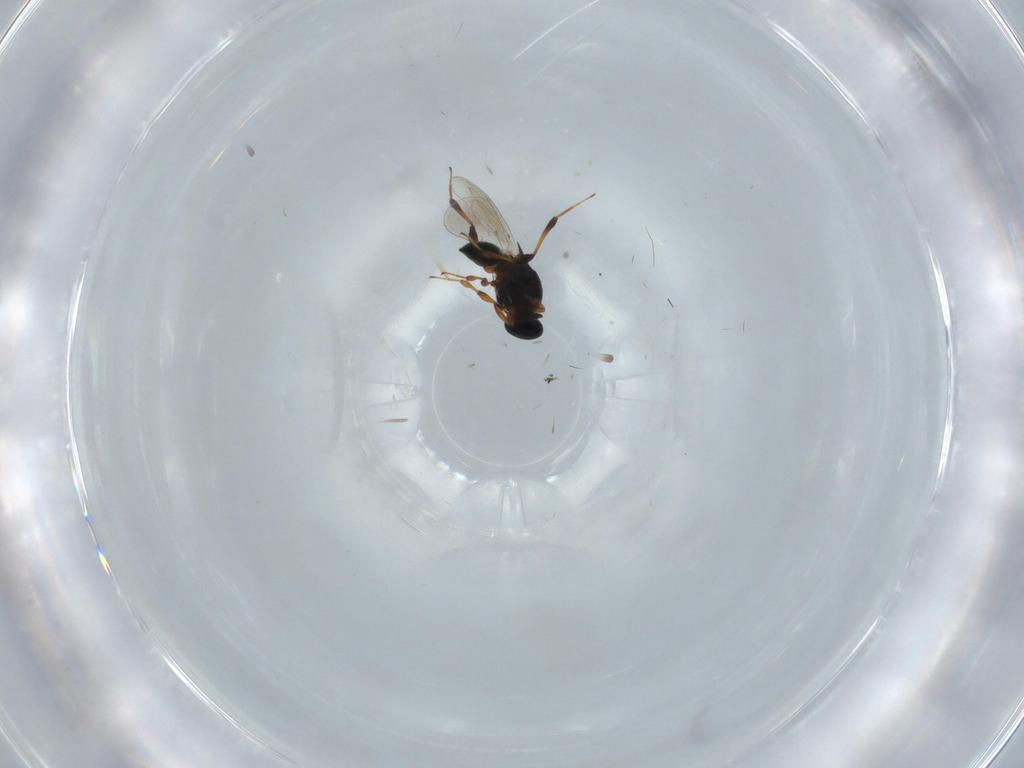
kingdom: Animalia
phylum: Arthropoda
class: Insecta
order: Hymenoptera
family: Platygastridae
